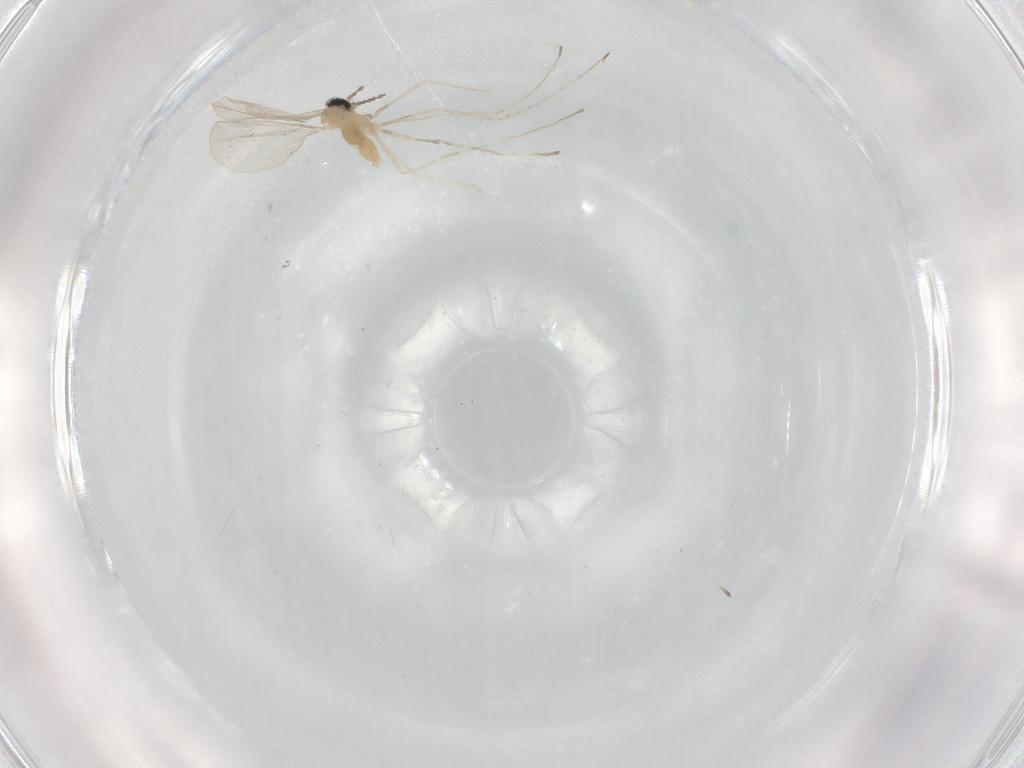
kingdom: Animalia
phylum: Arthropoda
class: Insecta
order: Diptera
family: Cecidomyiidae
